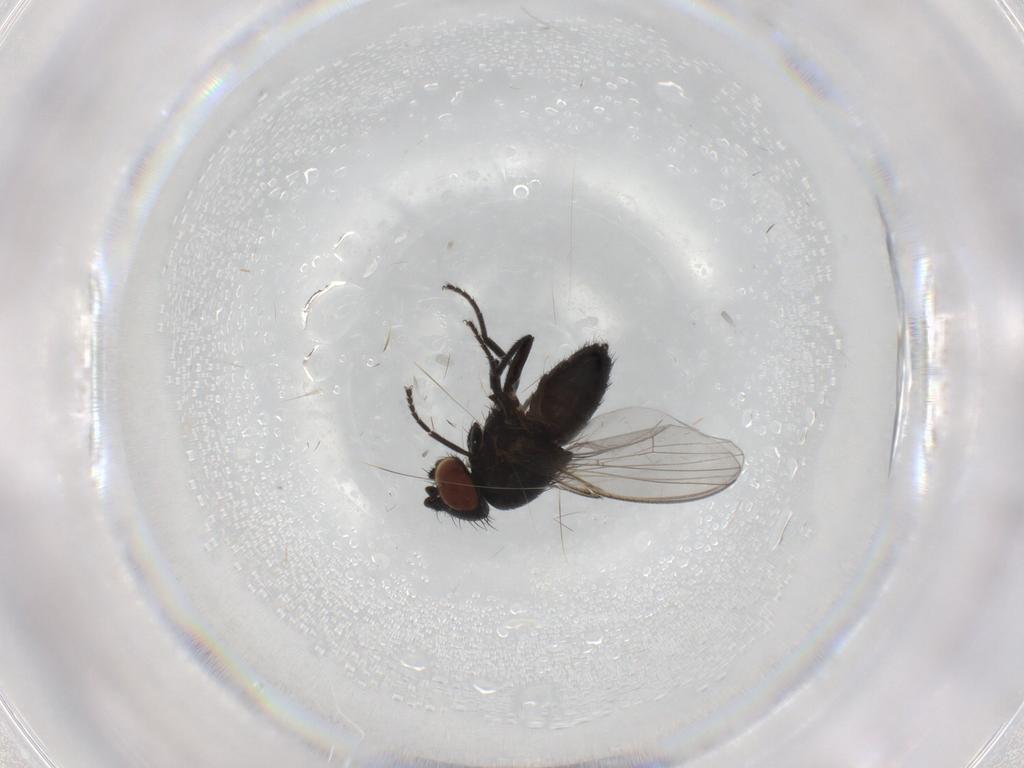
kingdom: Animalia
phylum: Arthropoda
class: Insecta
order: Diptera
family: Milichiidae
